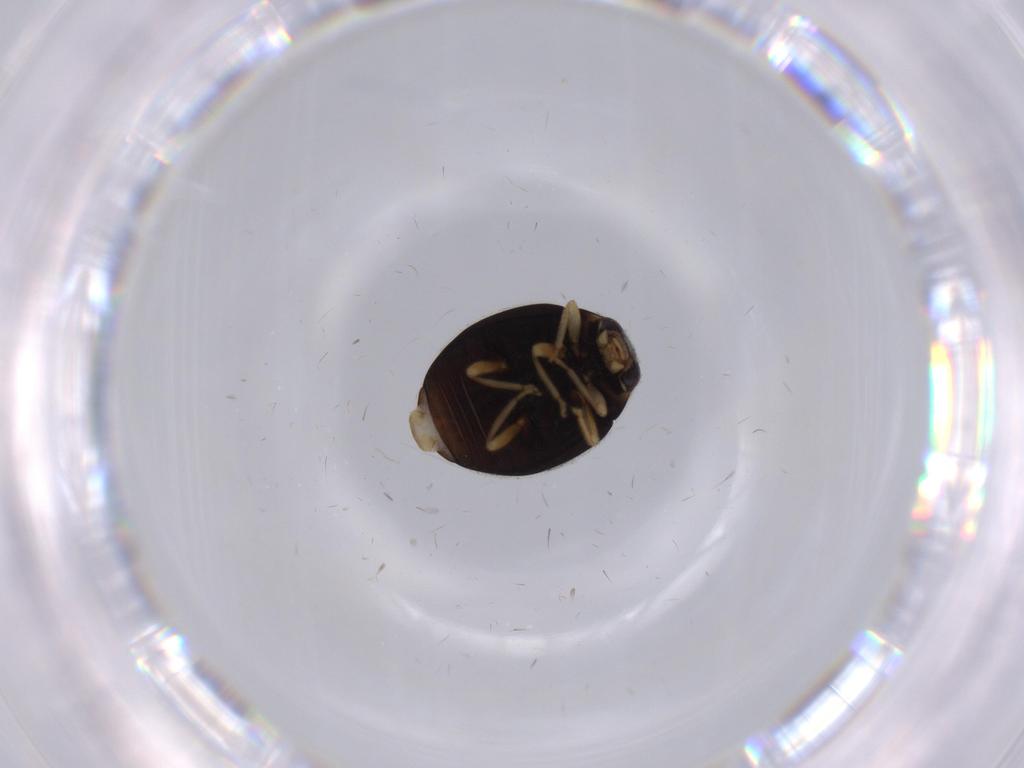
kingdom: Animalia
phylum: Arthropoda
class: Insecta
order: Coleoptera
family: Coccinellidae
